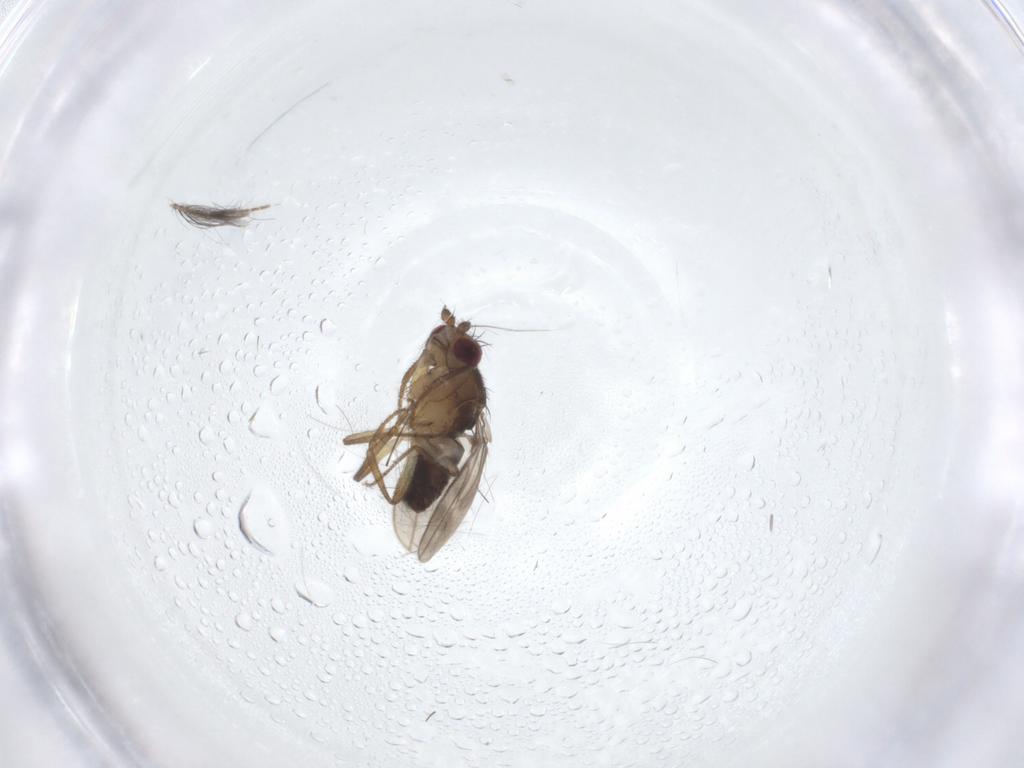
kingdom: Animalia
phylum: Arthropoda
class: Insecta
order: Diptera
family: Sphaeroceridae
